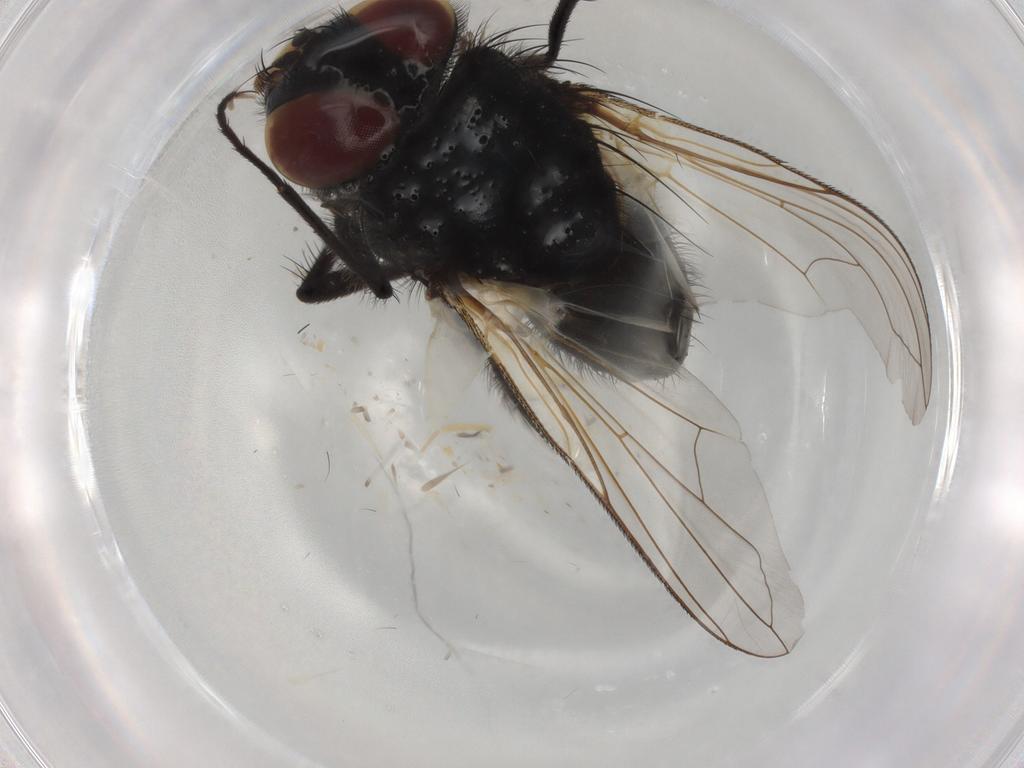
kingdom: Animalia
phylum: Arthropoda
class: Insecta
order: Diptera
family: Tachinidae
